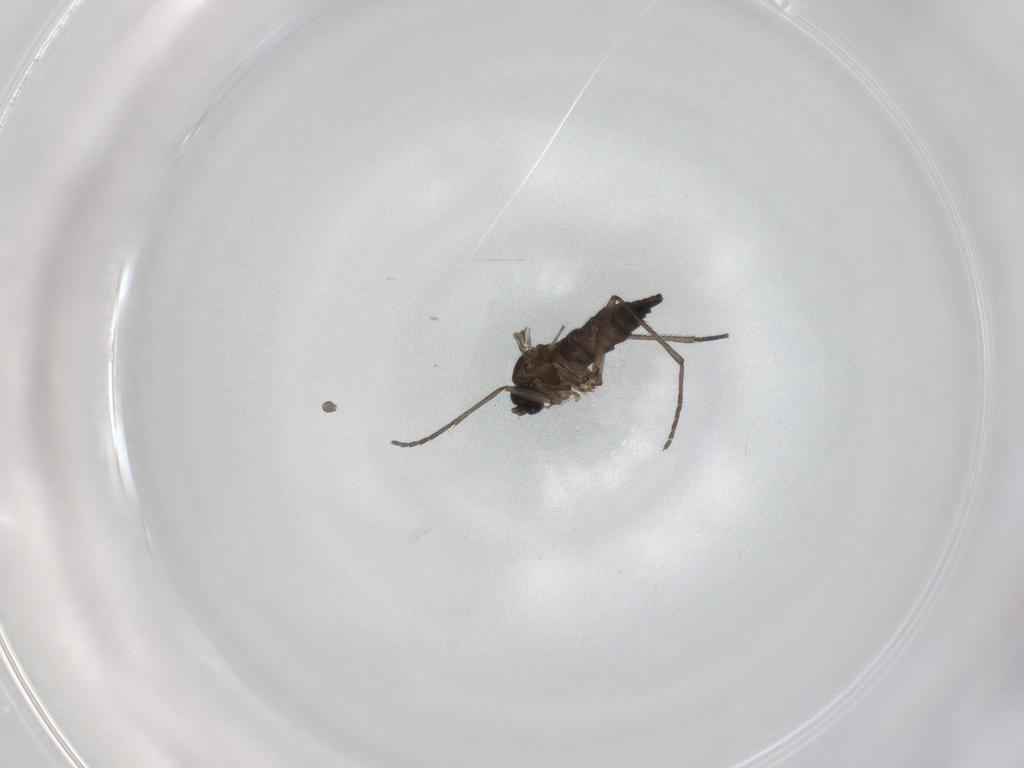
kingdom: Animalia
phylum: Arthropoda
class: Insecta
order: Diptera
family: Sciaridae
